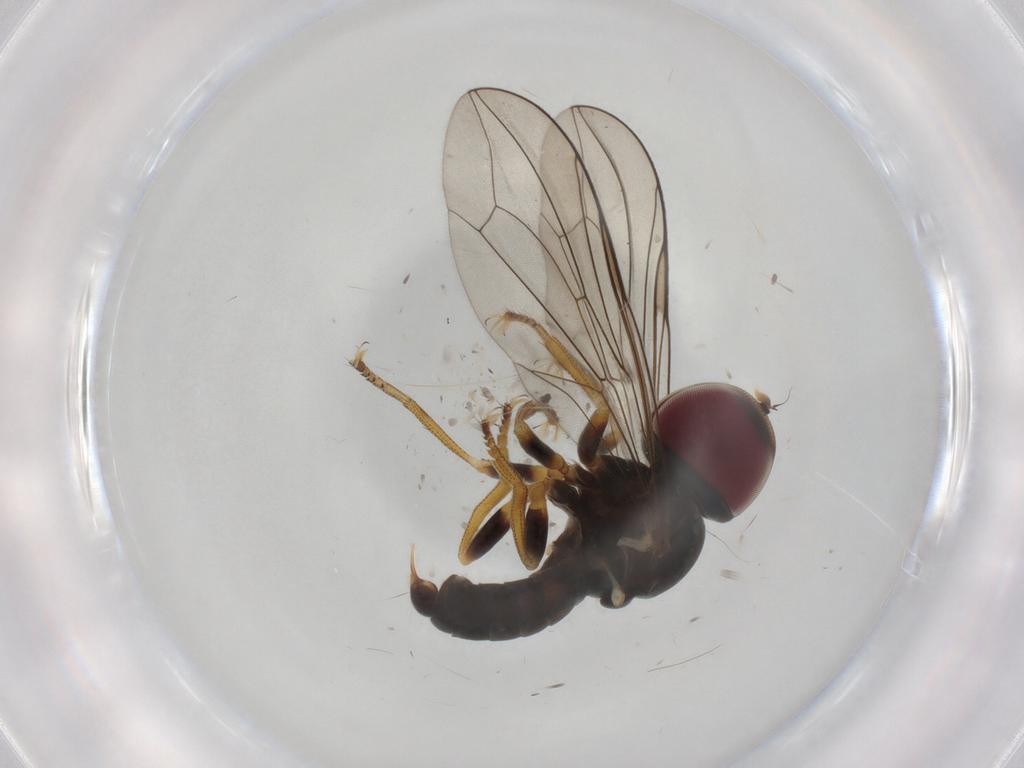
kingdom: Animalia
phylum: Arthropoda
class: Insecta
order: Diptera
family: Pipunculidae
